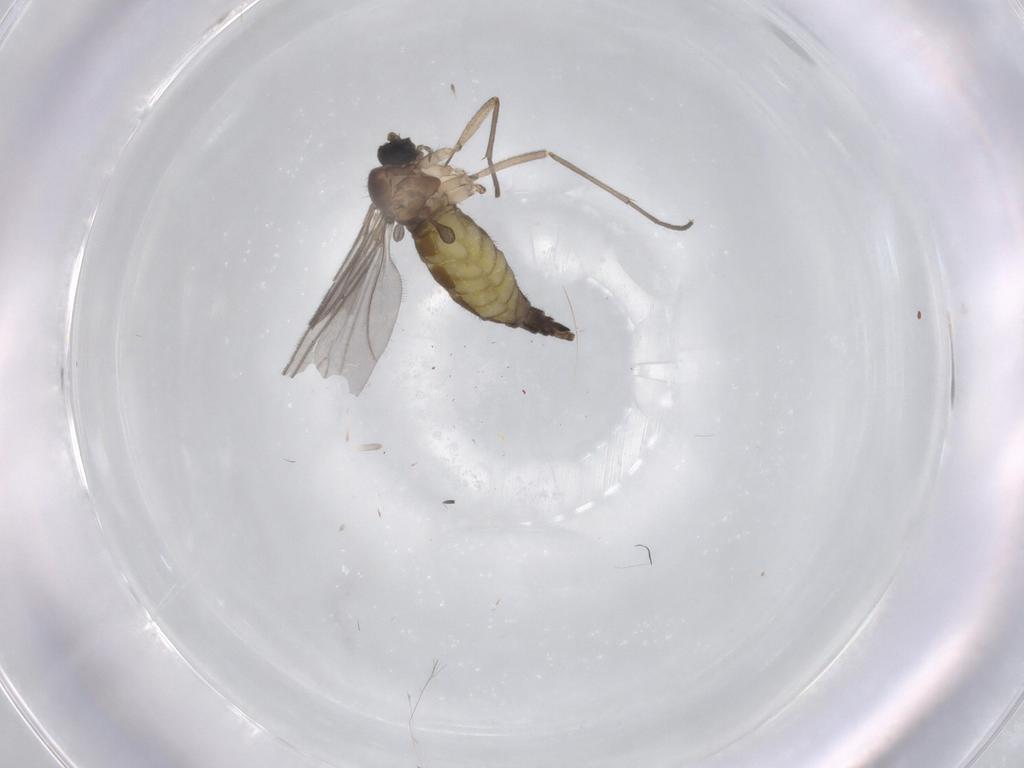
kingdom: Animalia
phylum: Arthropoda
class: Insecta
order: Diptera
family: Sciaridae
